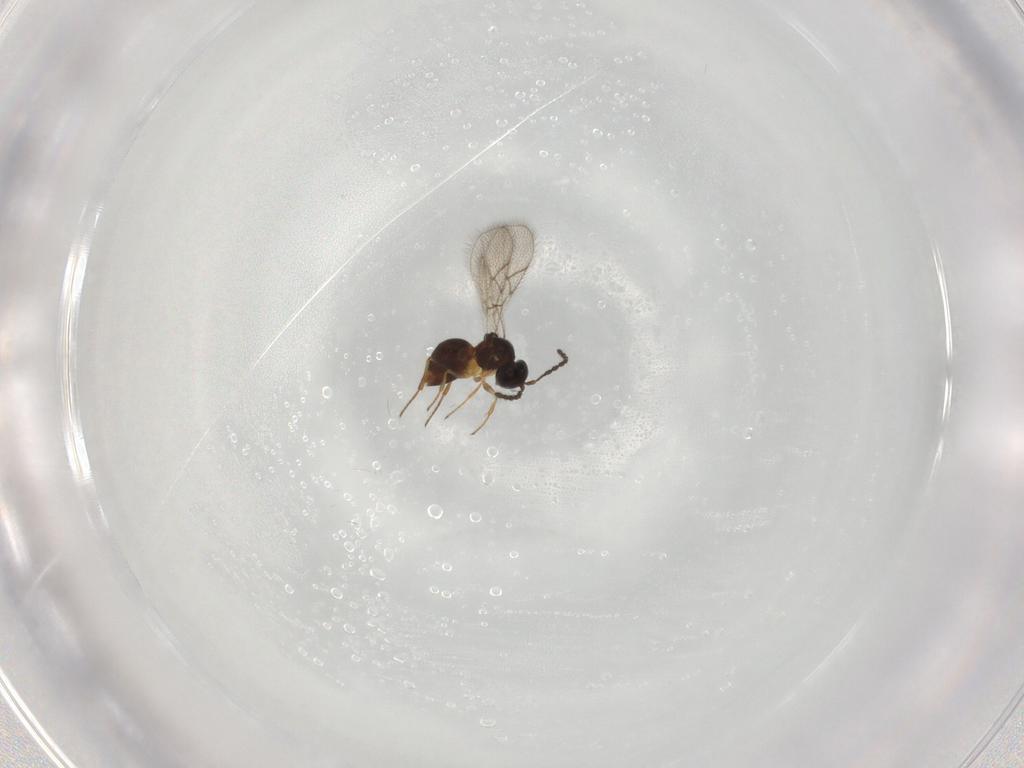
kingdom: Animalia
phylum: Arthropoda
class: Insecta
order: Hymenoptera
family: Figitidae
